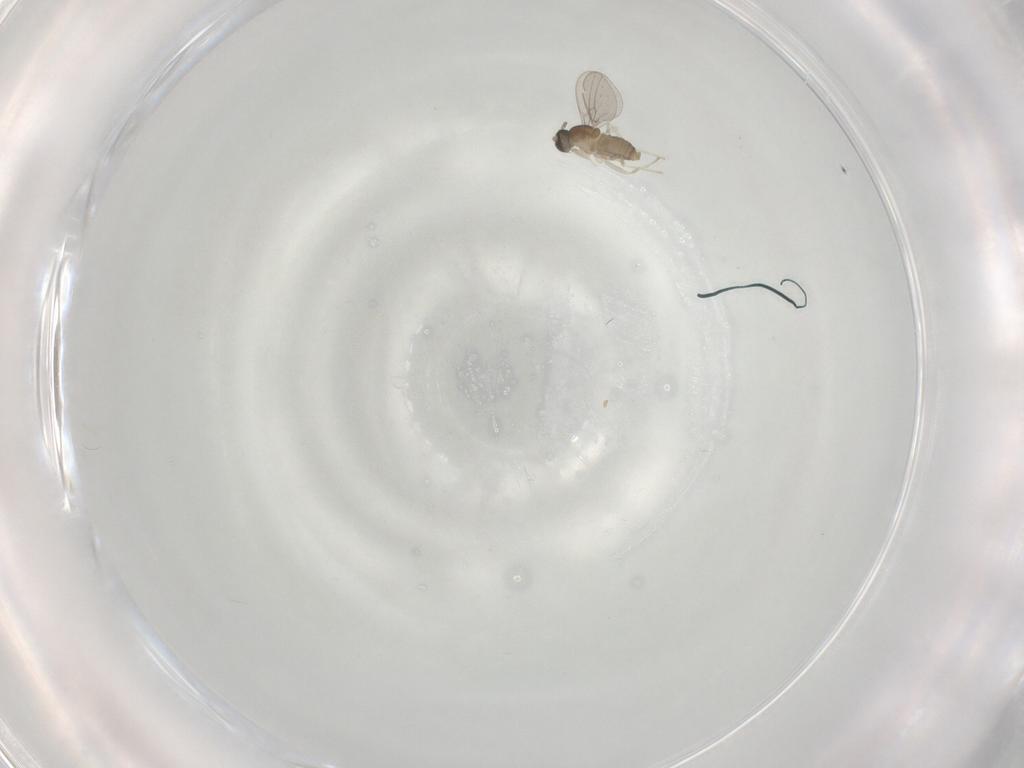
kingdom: Animalia
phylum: Arthropoda
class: Insecta
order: Diptera
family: Cecidomyiidae
